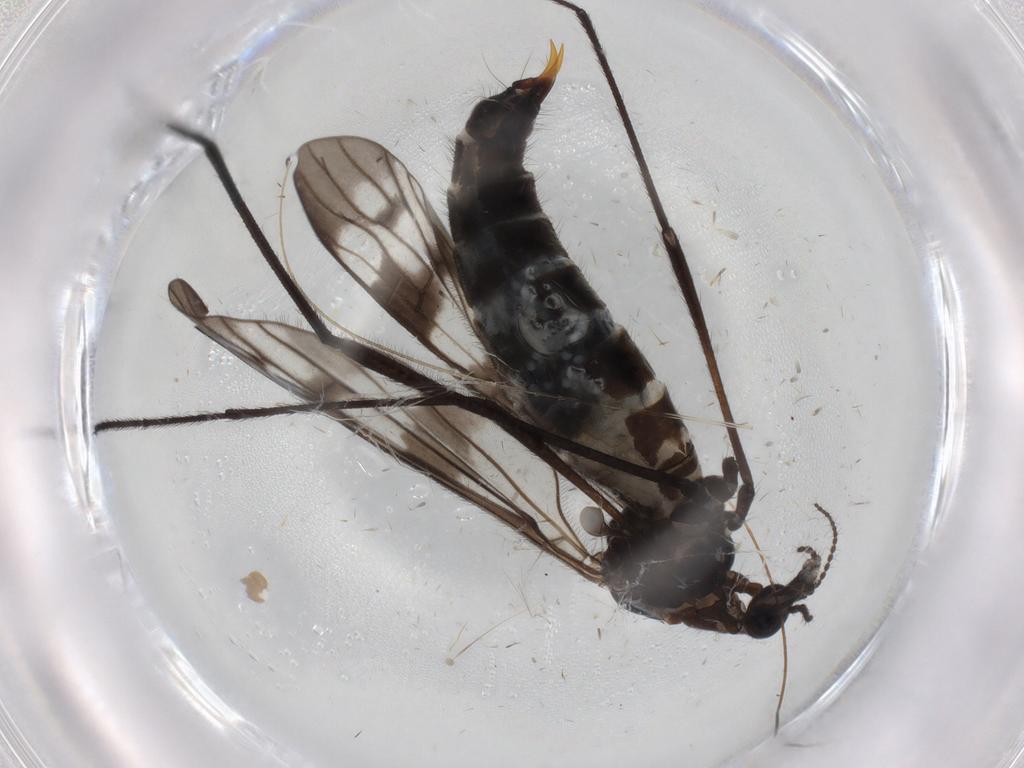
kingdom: Animalia
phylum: Arthropoda
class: Insecta
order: Diptera
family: Limoniidae
